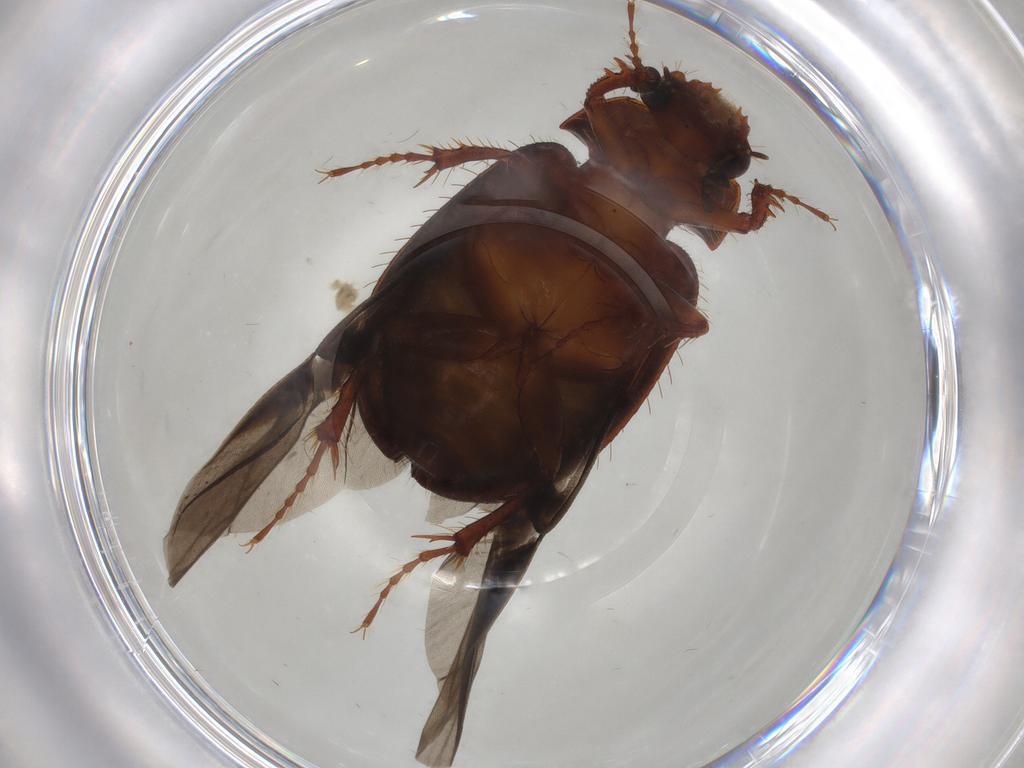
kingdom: Animalia
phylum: Arthropoda
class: Insecta
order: Coleoptera
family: Hybosoridae
